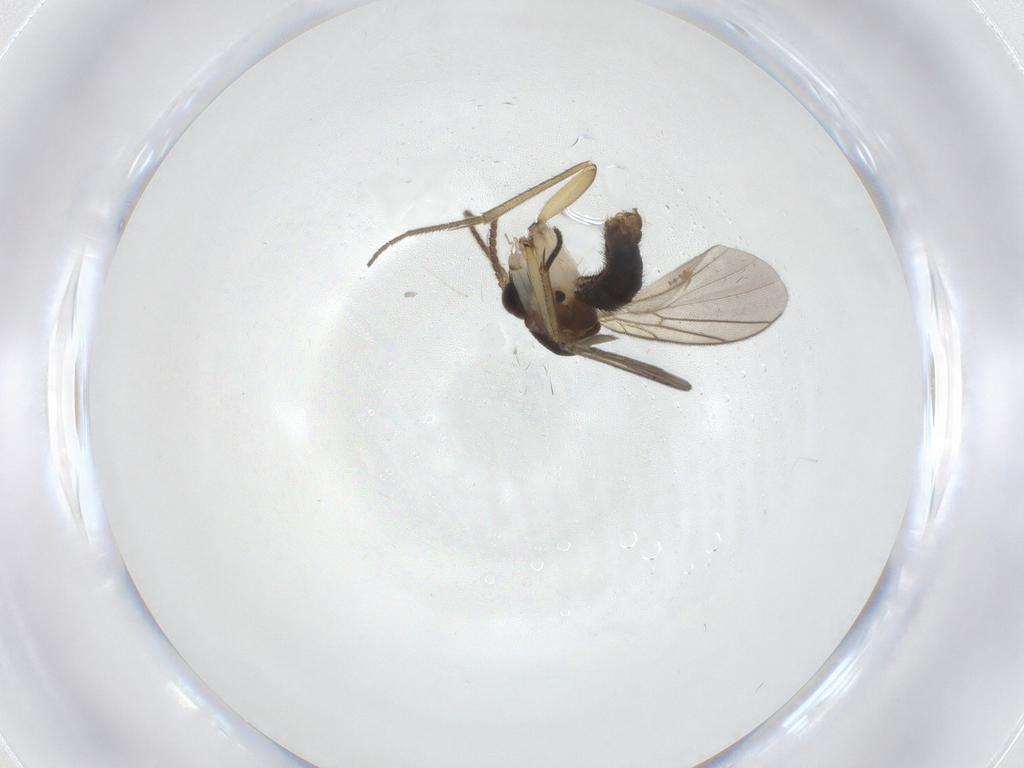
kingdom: Animalia
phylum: Arthropoda
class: Insecta
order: Diptera
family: Mycetophilidae
